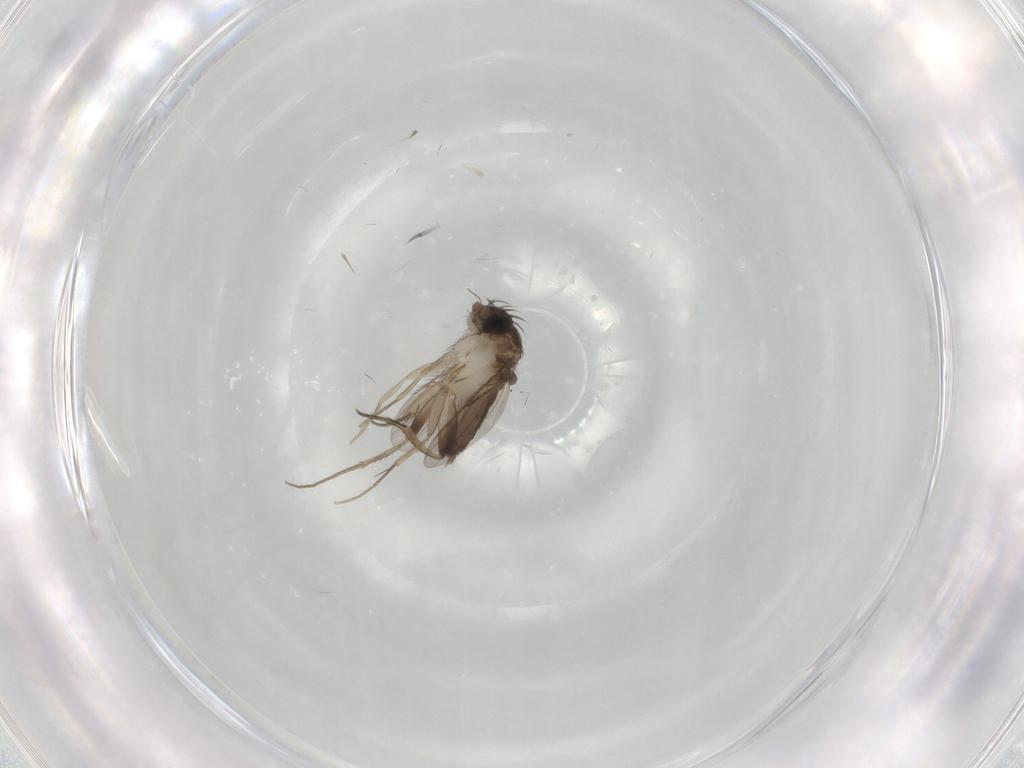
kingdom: Animalia
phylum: Arthropoda
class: Insecta
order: Diptera
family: Phoridae
